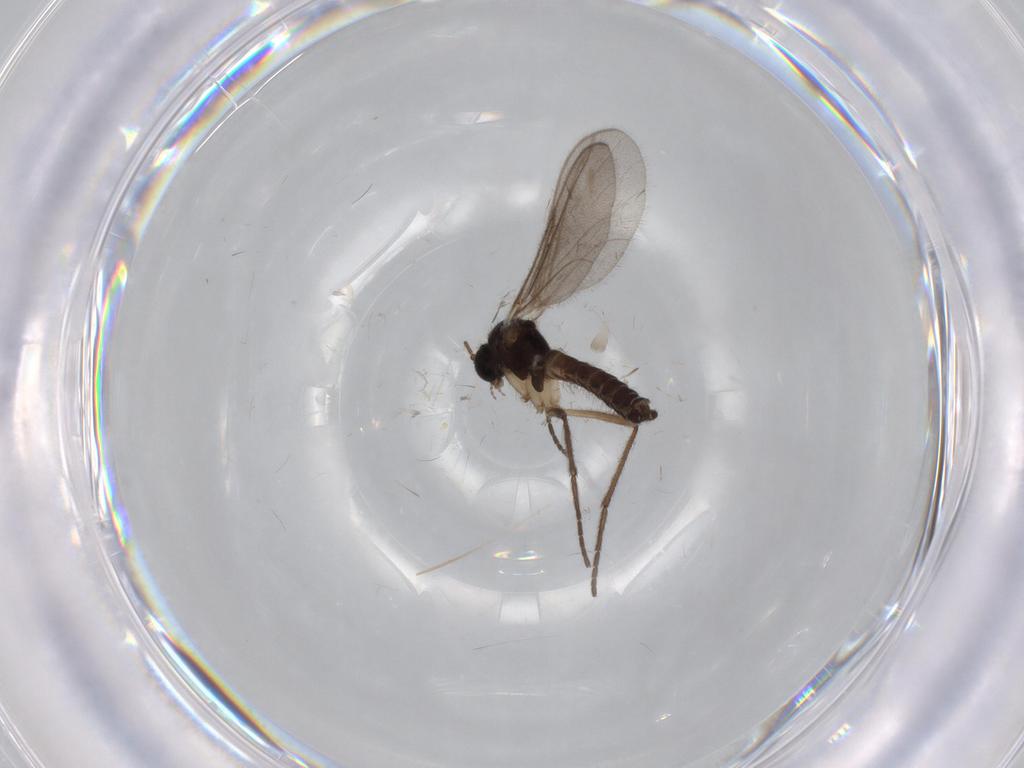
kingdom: Animalia
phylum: Arthropoda
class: Insecta
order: Diptera
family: Mycetophilidae
